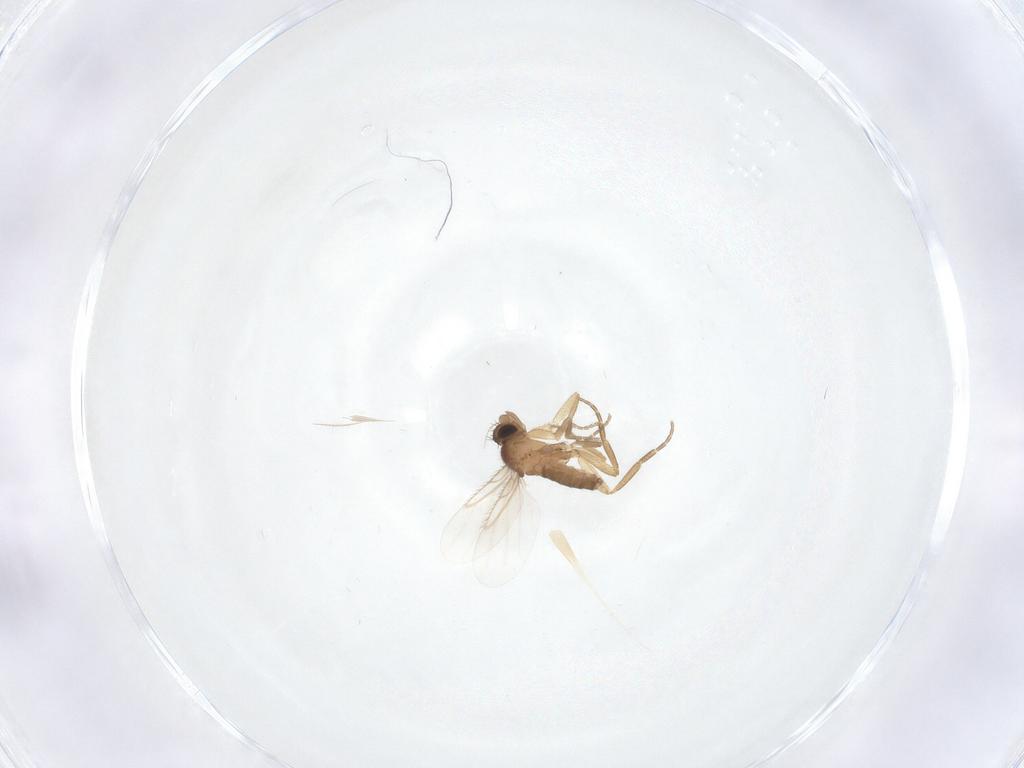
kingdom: Animalia
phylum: Arthropoda
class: Insecta
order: Diptera
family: Phoridae
